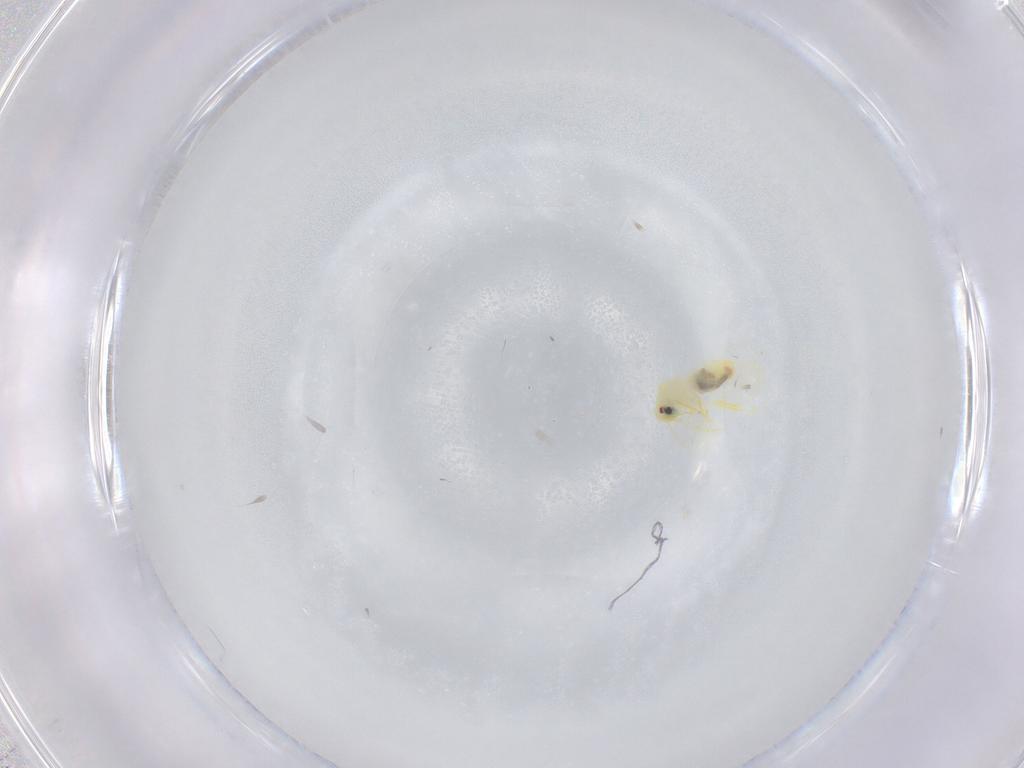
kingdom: Animalia
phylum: Arthropoda
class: Insecta
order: Hemiptera
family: Aleyrodidae
